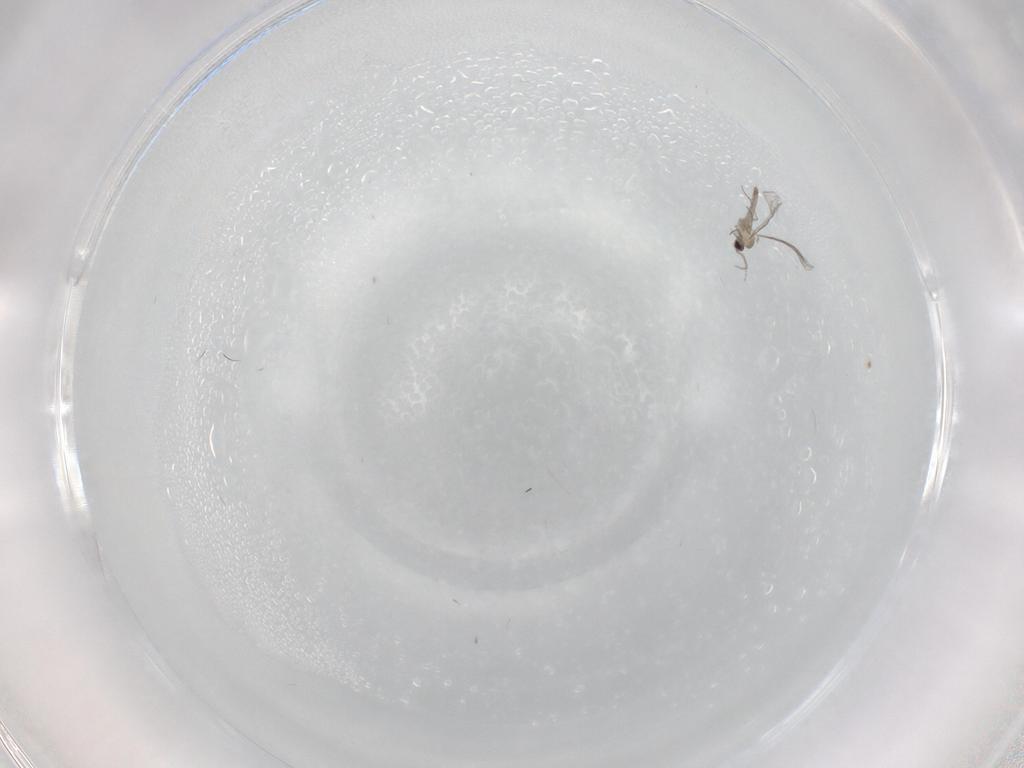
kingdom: Animalia
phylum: Arthropoda
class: Insecta
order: Diptera
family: Cecidomyiidae
